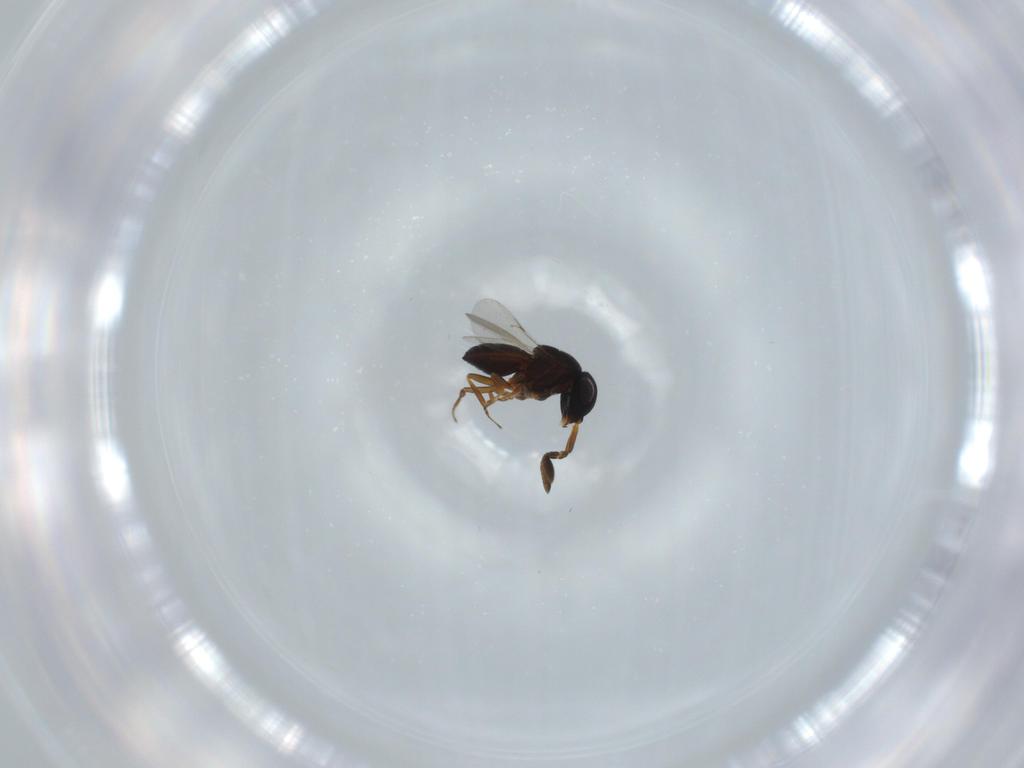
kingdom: Animalia
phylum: Arthropoda
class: Insecta
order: Coleoptera
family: Curculionidae
